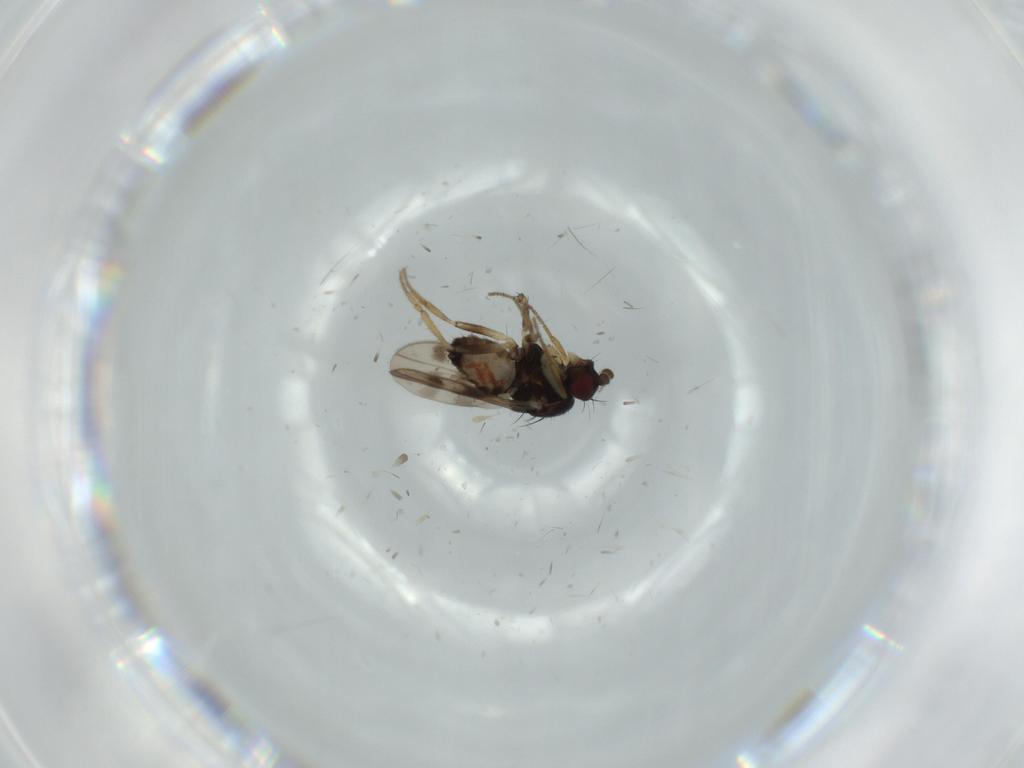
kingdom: Animalia
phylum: Arthropoda
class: Insecta
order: Diptera
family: Sphaeroceridae
